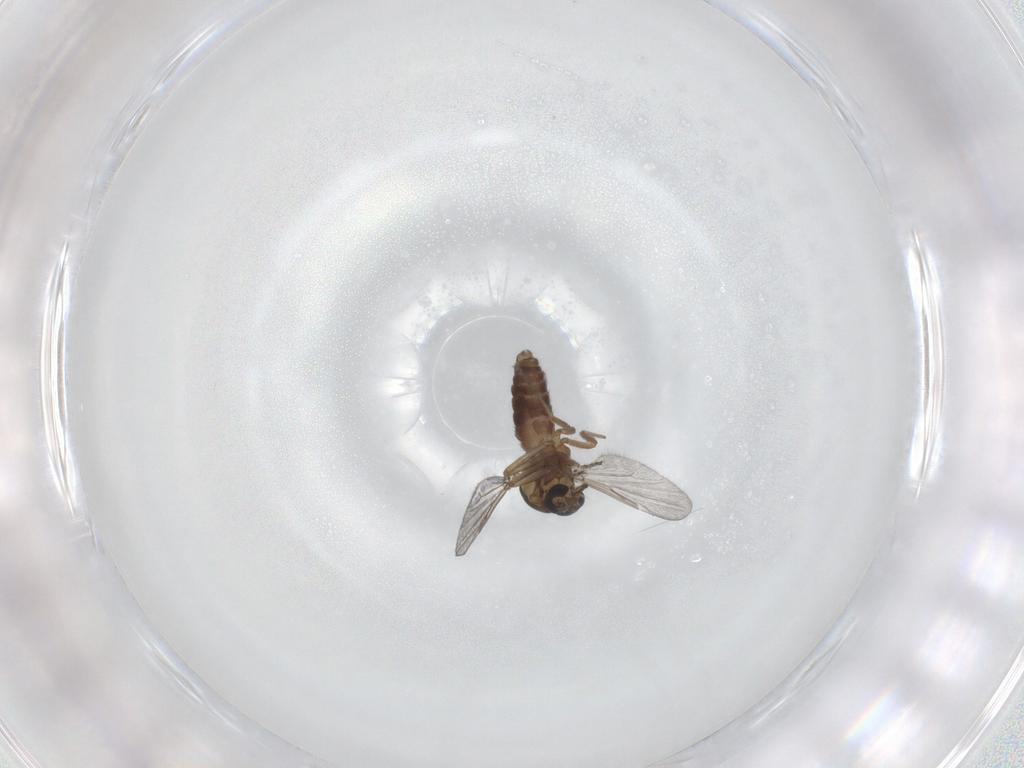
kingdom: Animalia
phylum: Arthropoda
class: Insecta
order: Diptera
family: Ceratopogonidae
